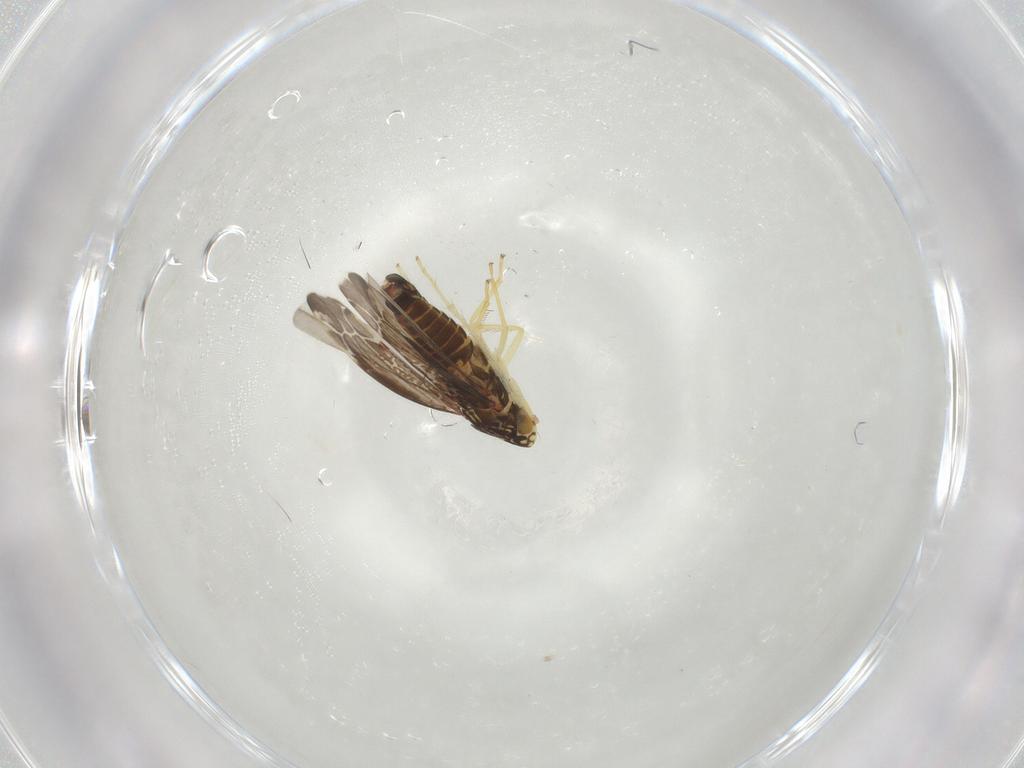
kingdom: Animalia
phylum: Arthropoda
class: Insecta
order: Hemiptera
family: Cicadellidae
